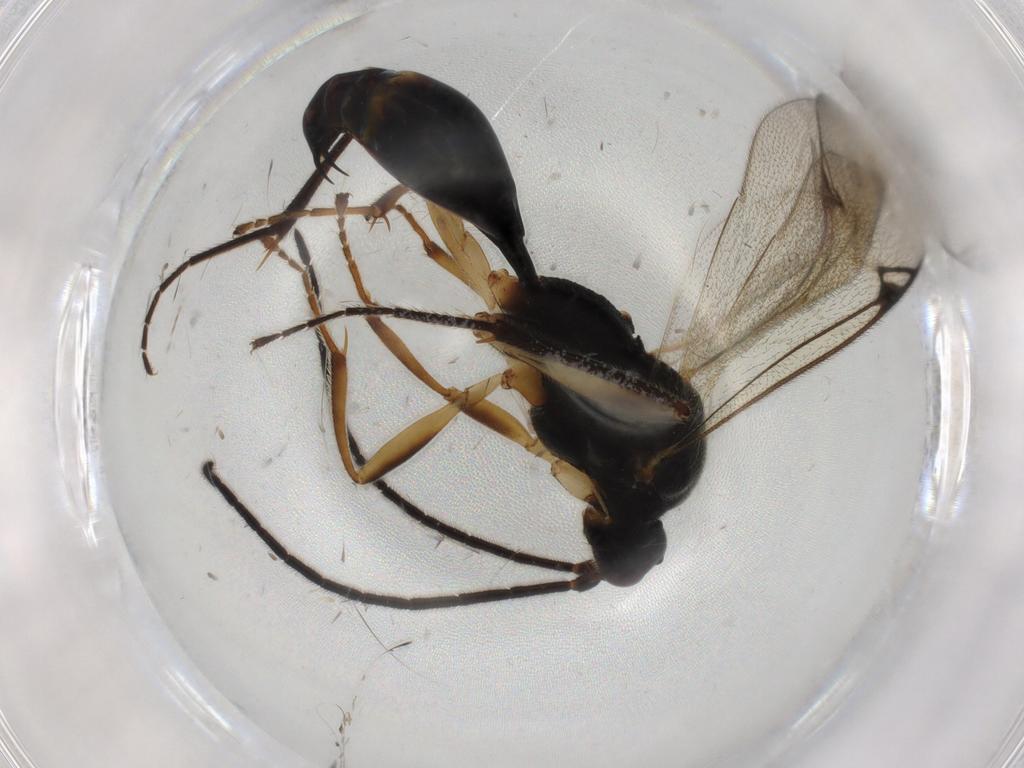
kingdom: Animalia
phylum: Arthropoda
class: Insecta
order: Hymenoptera
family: Proctotrupidae
